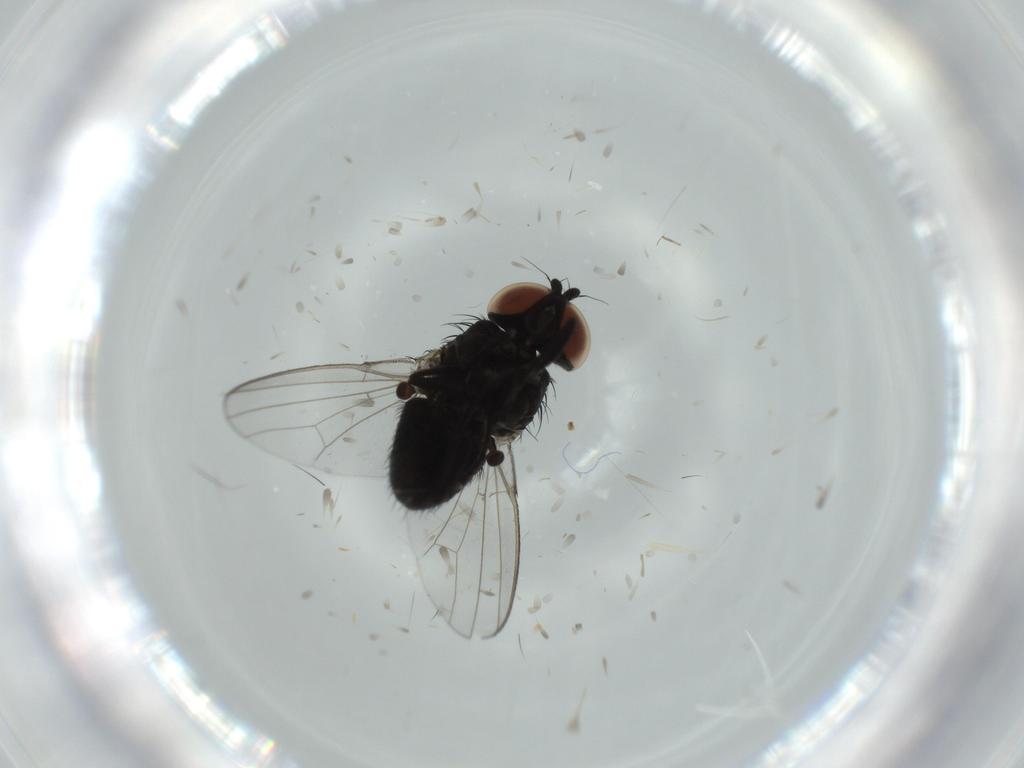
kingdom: Animalia
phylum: Arthropoda
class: Insecta
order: Diptera
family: Milichiidae
